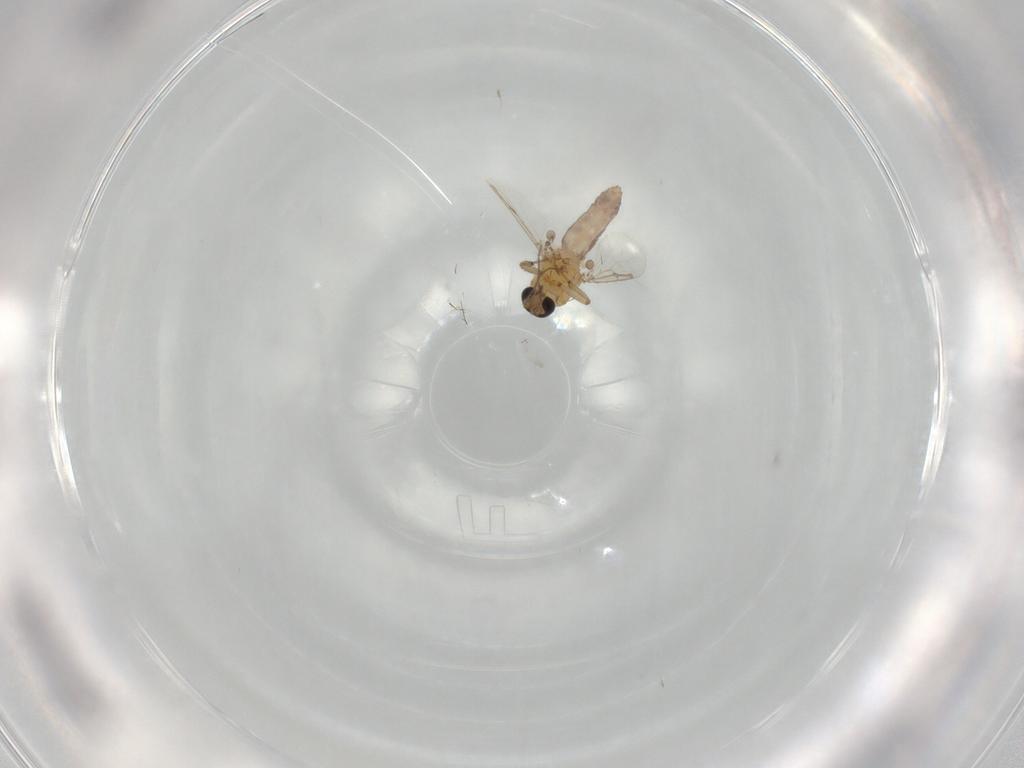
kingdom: Animalia
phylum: Arthropoda
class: Insecta
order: Diptera
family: Ceratopogonidae
